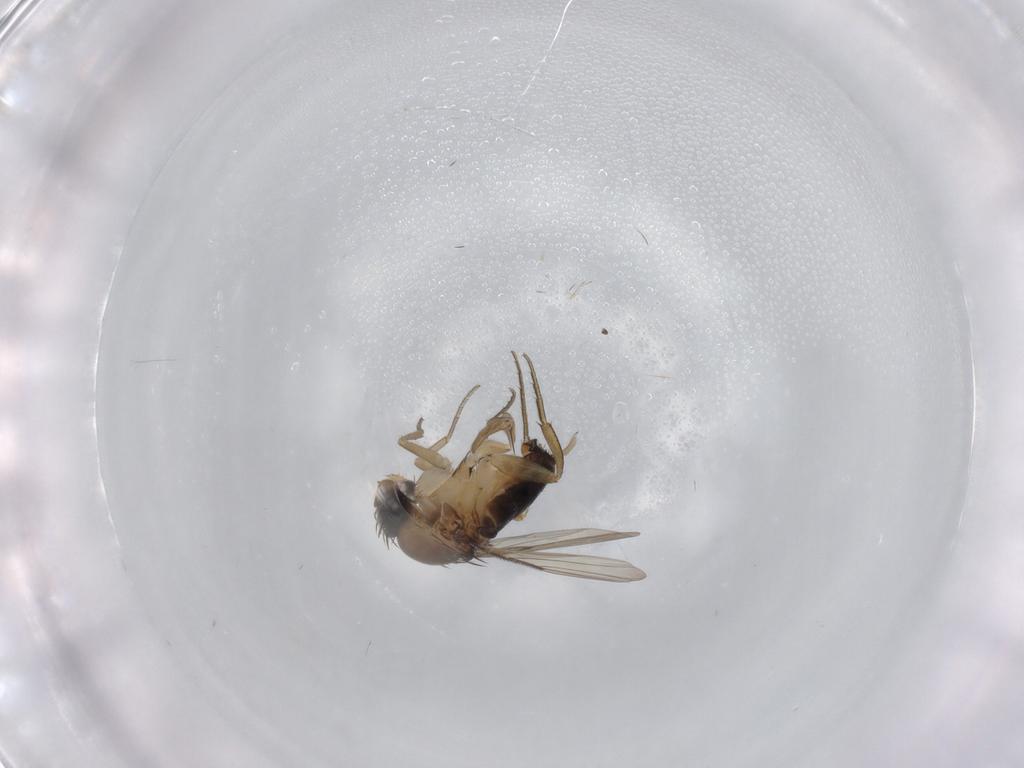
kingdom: Animalia
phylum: Arthropoda
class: Insecta
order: Diptera
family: Phoridae
